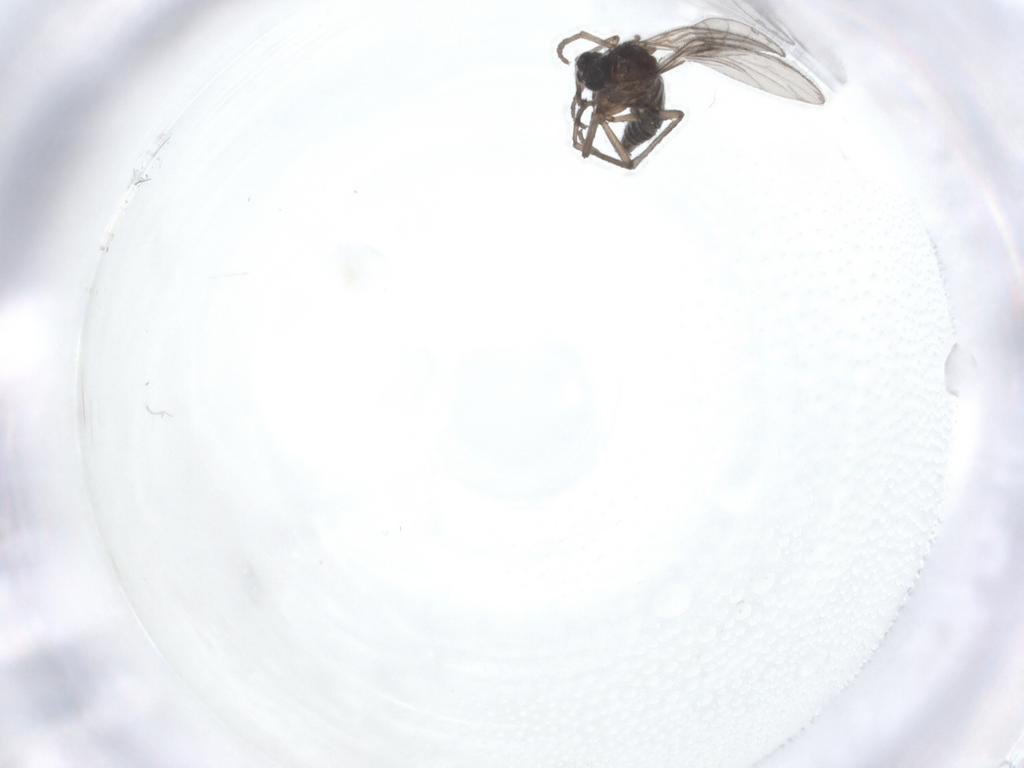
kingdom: Animalia
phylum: Arthropoda
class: Insecta
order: Diptera
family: Sciaridae
